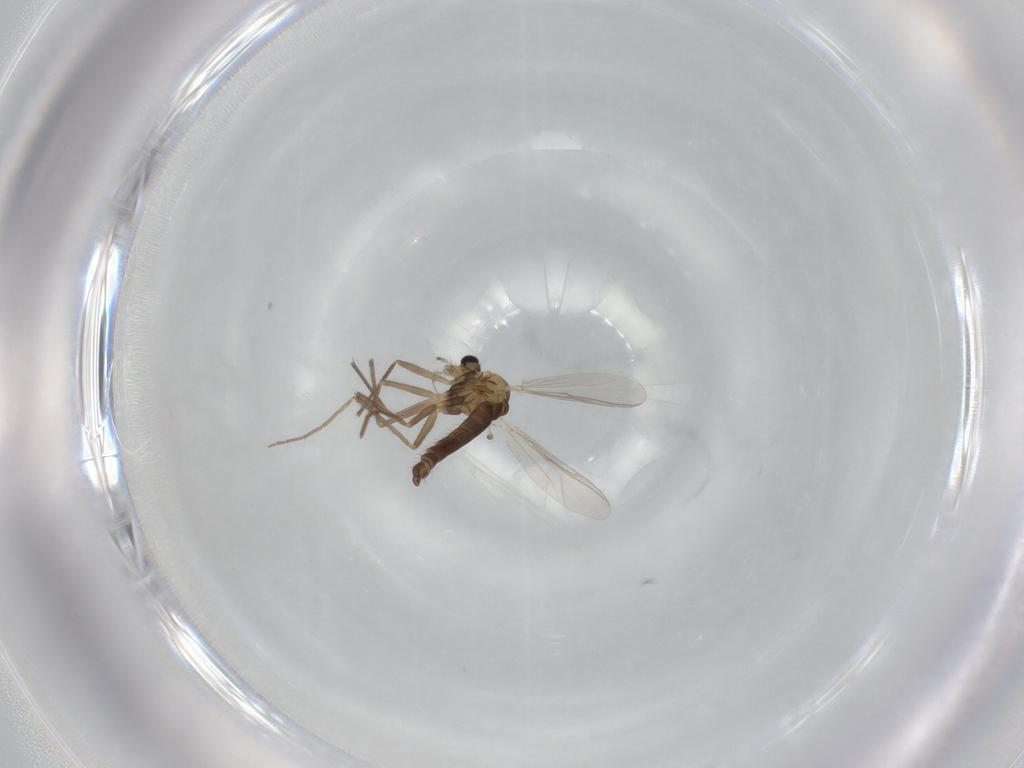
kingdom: Animalia
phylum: Arthropoda
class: Insecta
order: Diptera
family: Chironomidae
